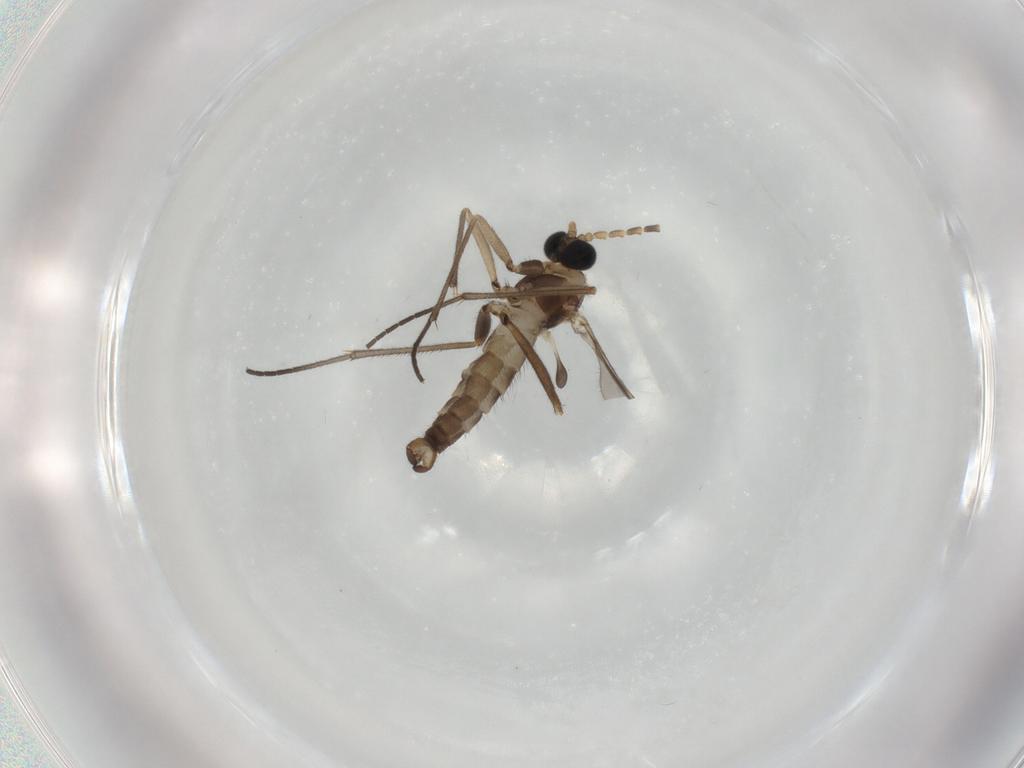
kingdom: Animalia
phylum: Arthropoda
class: Insecta
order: Diptera
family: Sciaridae
